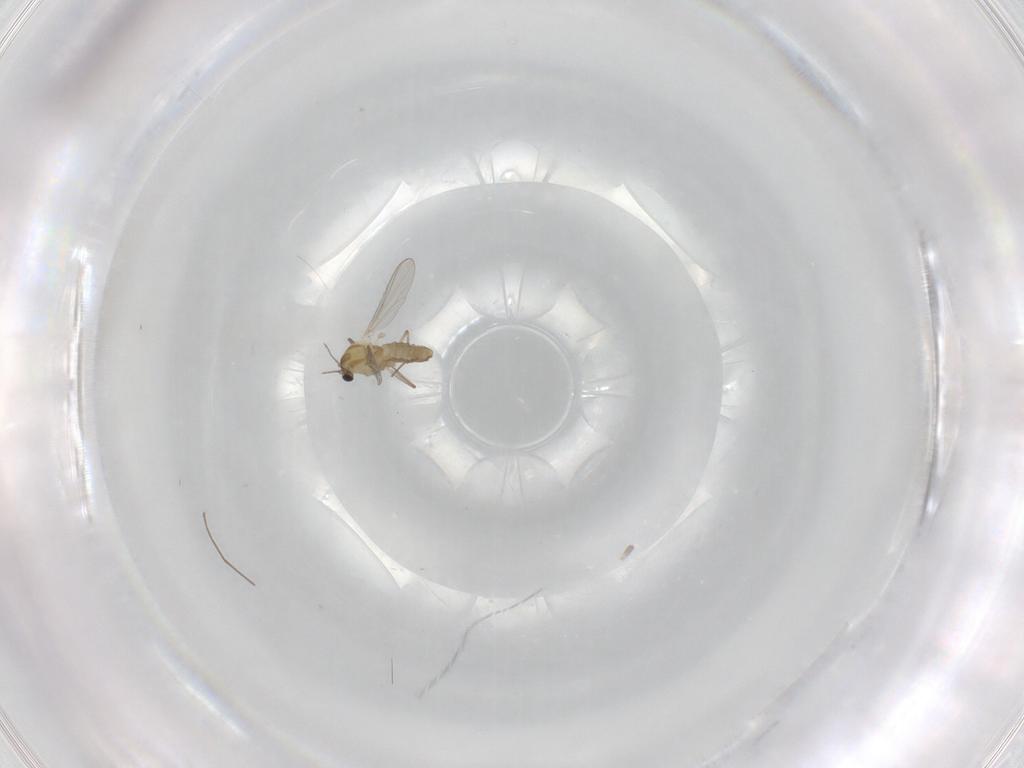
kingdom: Animalia
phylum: Arthropoda
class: Insecta
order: Diptera
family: Chironomidae
